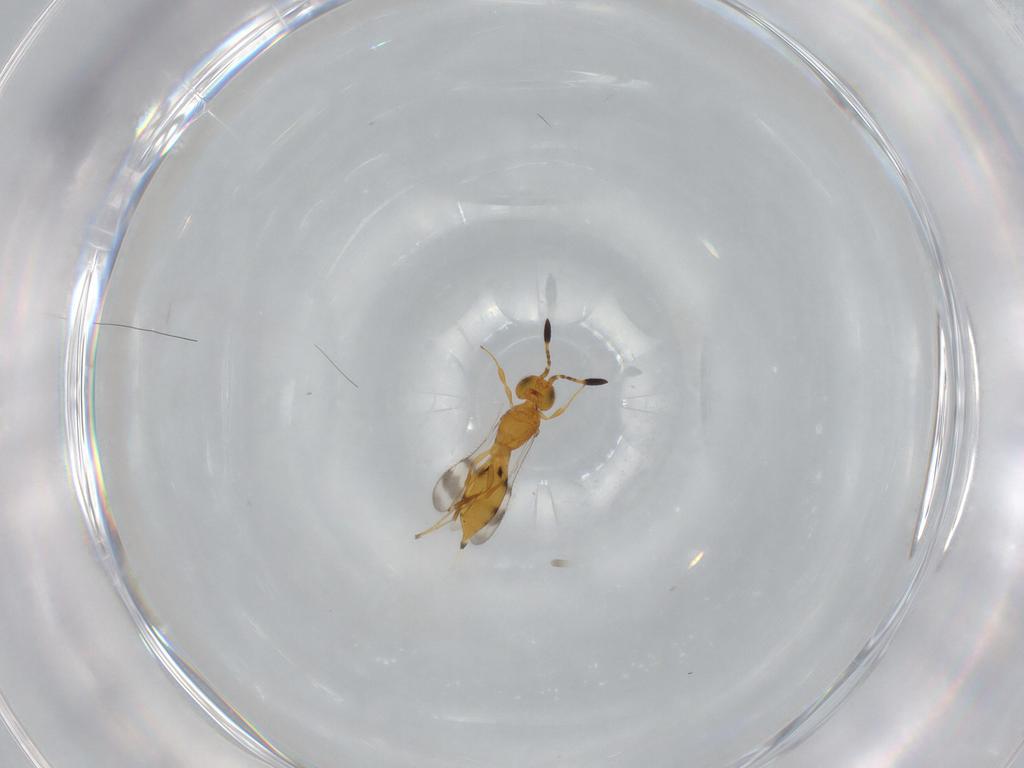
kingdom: Animalia
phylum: Arthropoda
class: Insecta
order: Hymenoptera
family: Scelionidae
